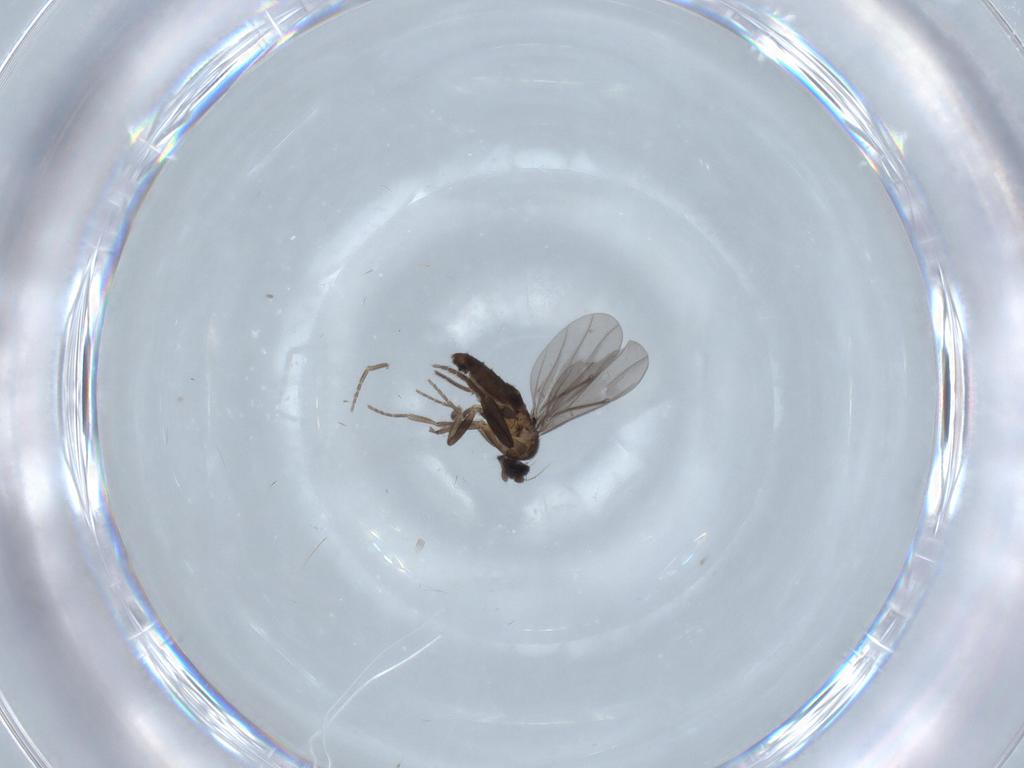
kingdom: Animalia
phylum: Arthropoda
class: Insecta
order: Diptera
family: Phoridae
